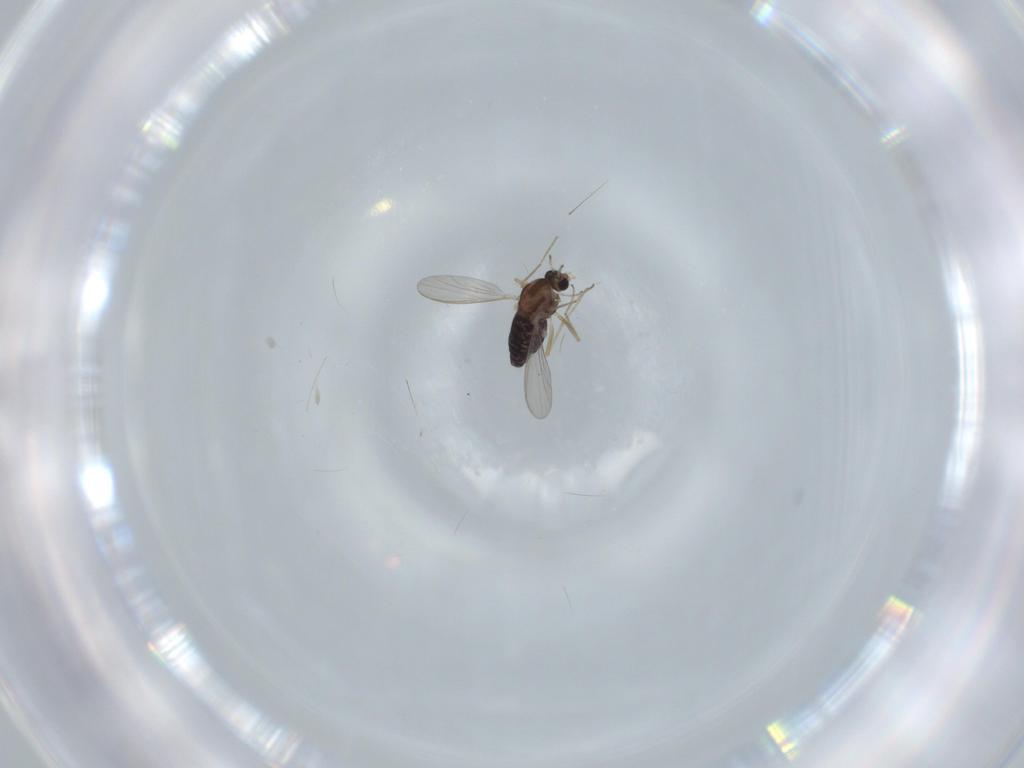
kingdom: Animalia
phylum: Arthropoda
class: Insecta
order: Diptera
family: Chironomidae
